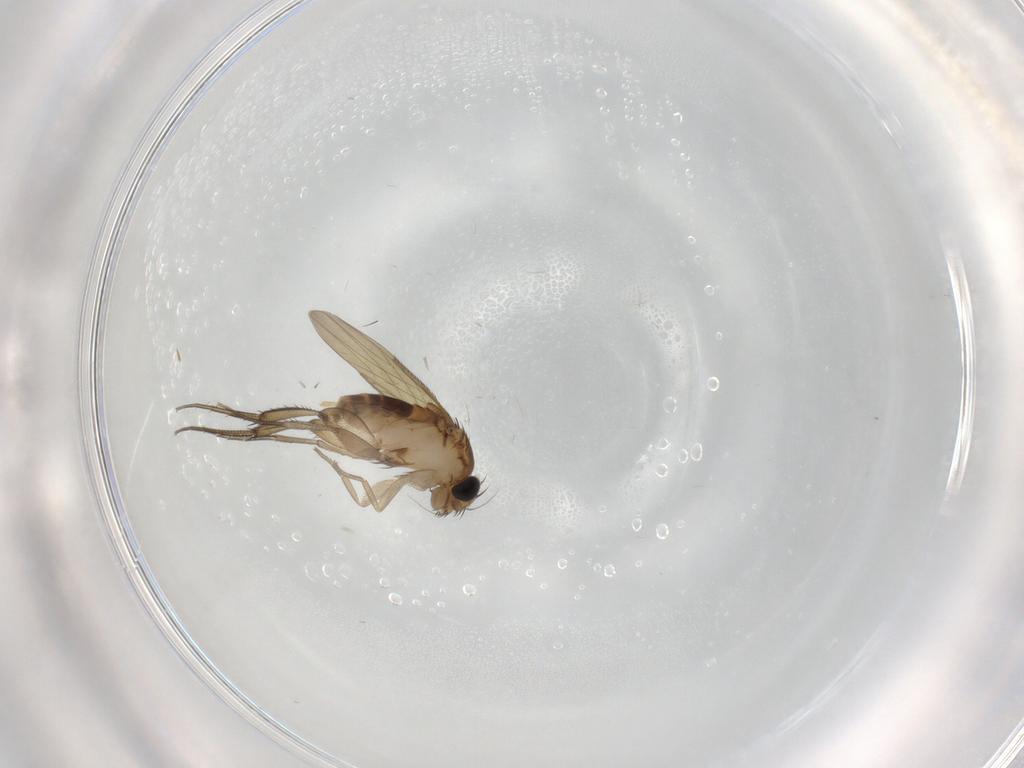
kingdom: Animalia
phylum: Arthropoda
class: Insecta
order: Diptera
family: Phoridae
